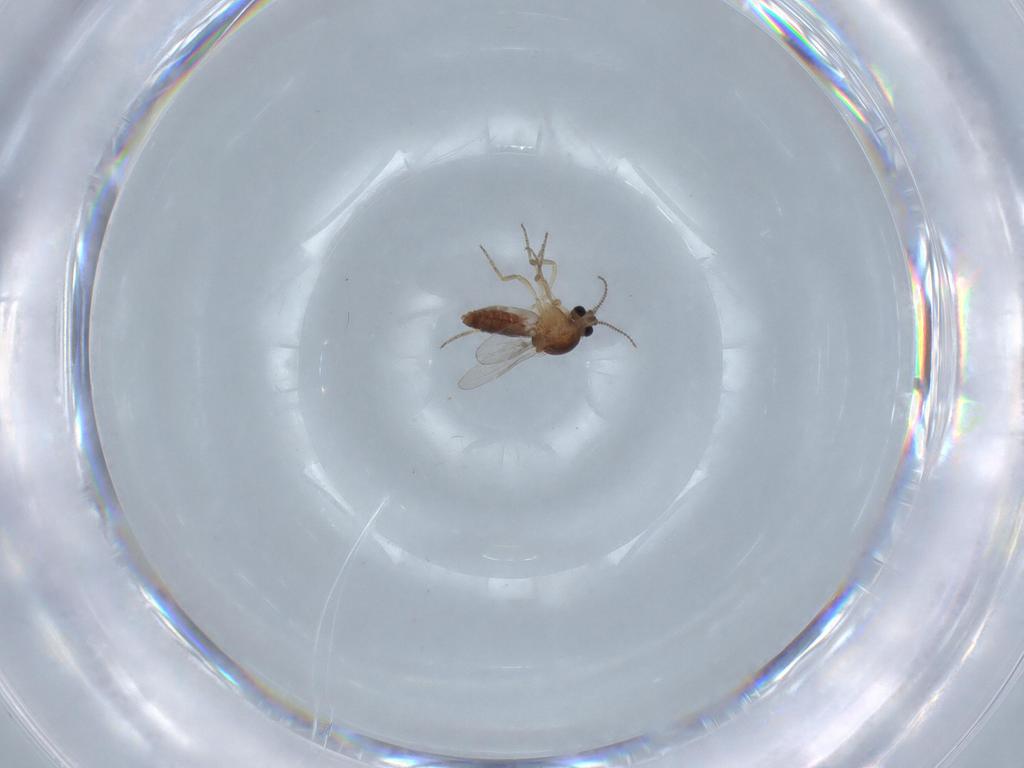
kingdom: Animalia
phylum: Arthropoda
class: Insecta
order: Diptera
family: Ceratopogonidae
